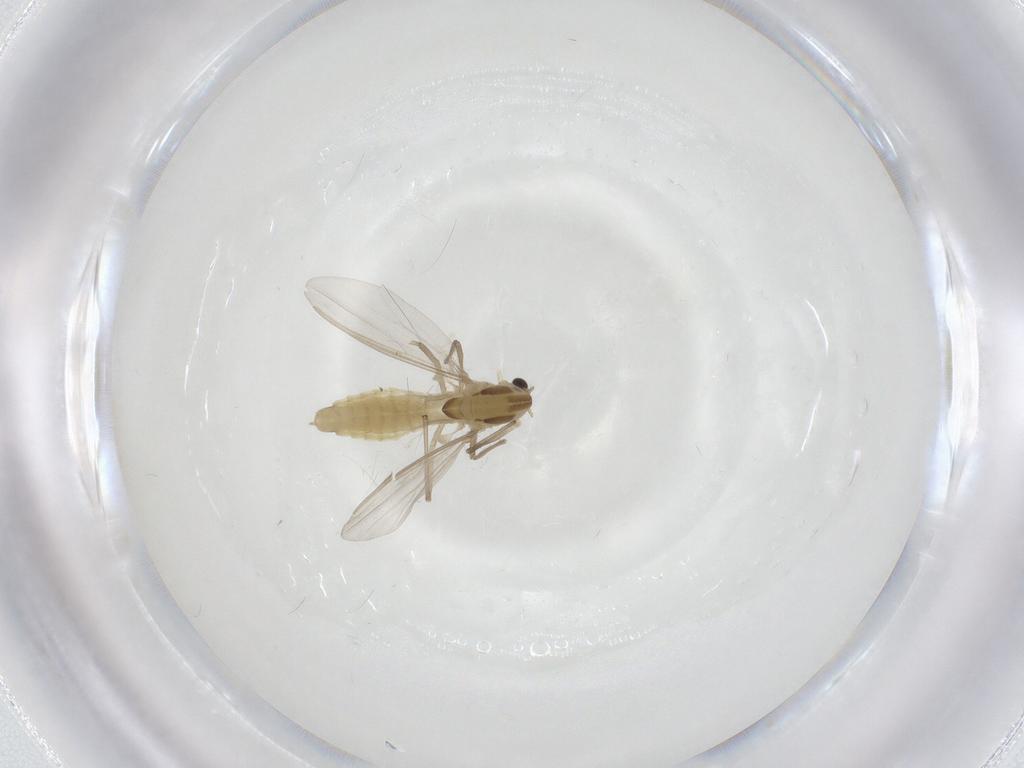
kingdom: Animalia
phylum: Arthropoda
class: Insecta
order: Diptera
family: Chironomidae
